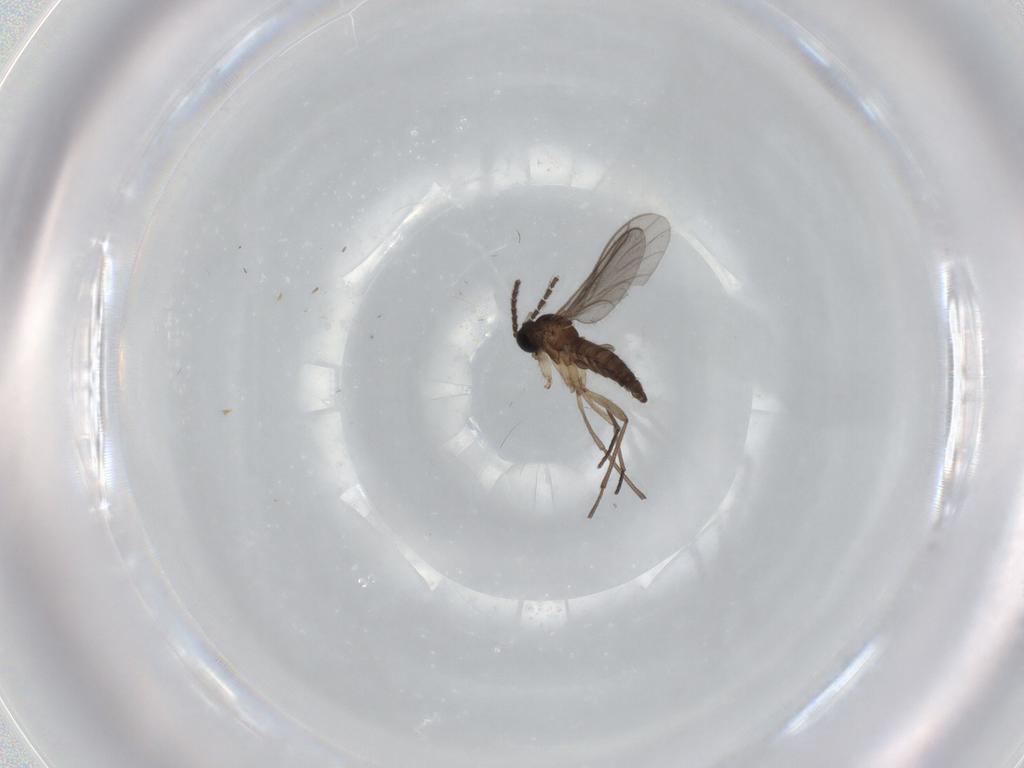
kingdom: Animalia
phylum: Arthropoda
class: Insecta
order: Diptera
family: Sciaridae
